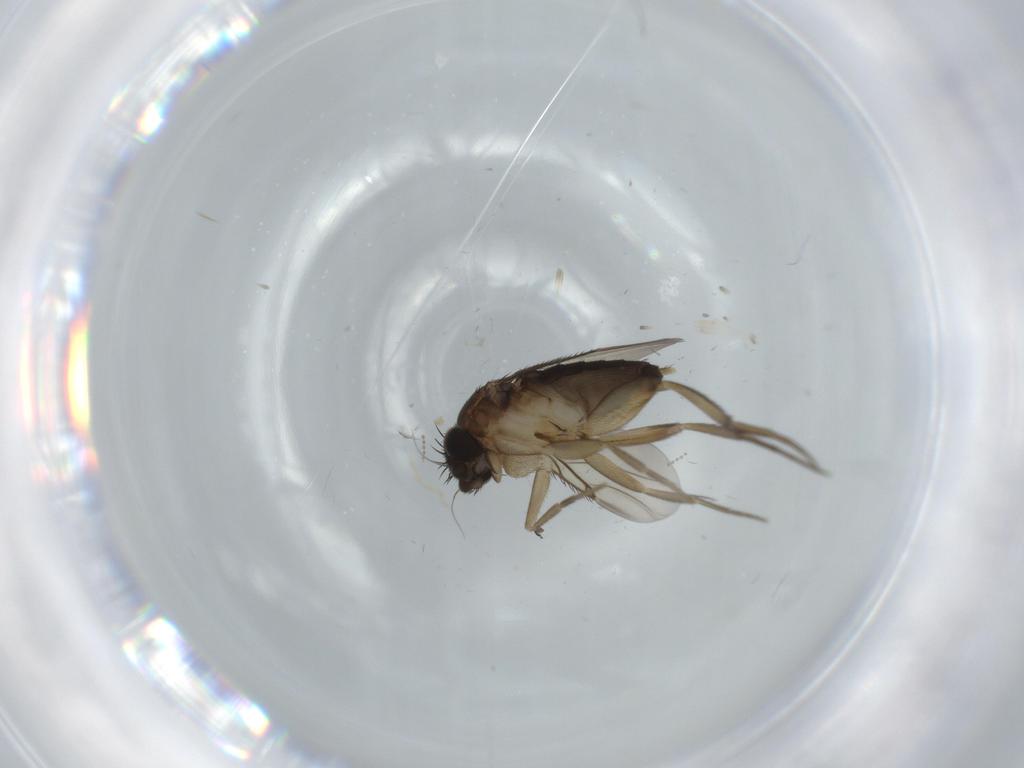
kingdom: Animalia
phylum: Arthropoda
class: Insecta
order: Diptera
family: Phoridae
